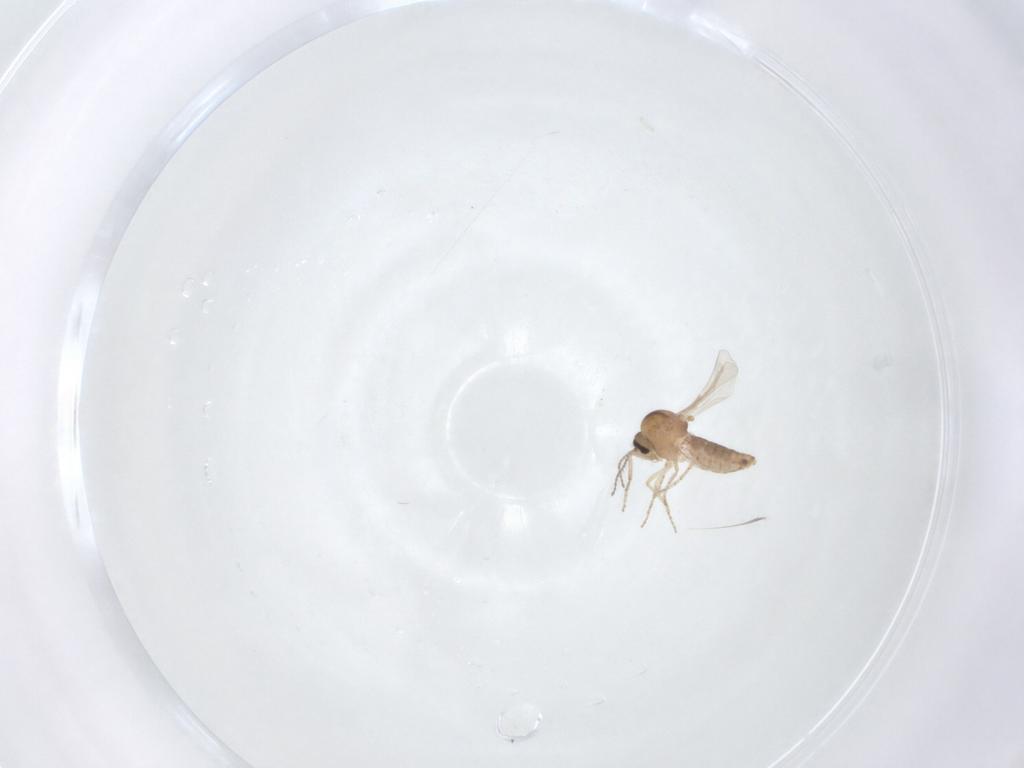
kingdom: Animalia
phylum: Arthropoda
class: Insecta
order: Diptera
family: Ceratopogonidae
